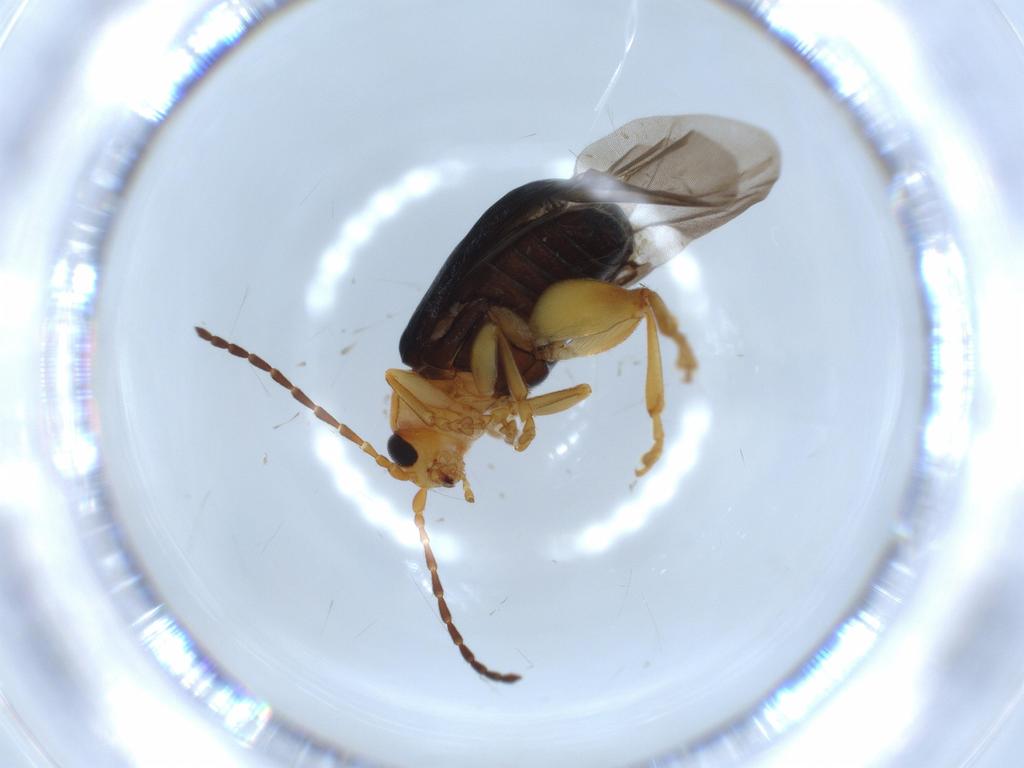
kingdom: Animalia
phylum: Arthropoda
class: Insecta
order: Coleoptera
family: Chrysomelidae
